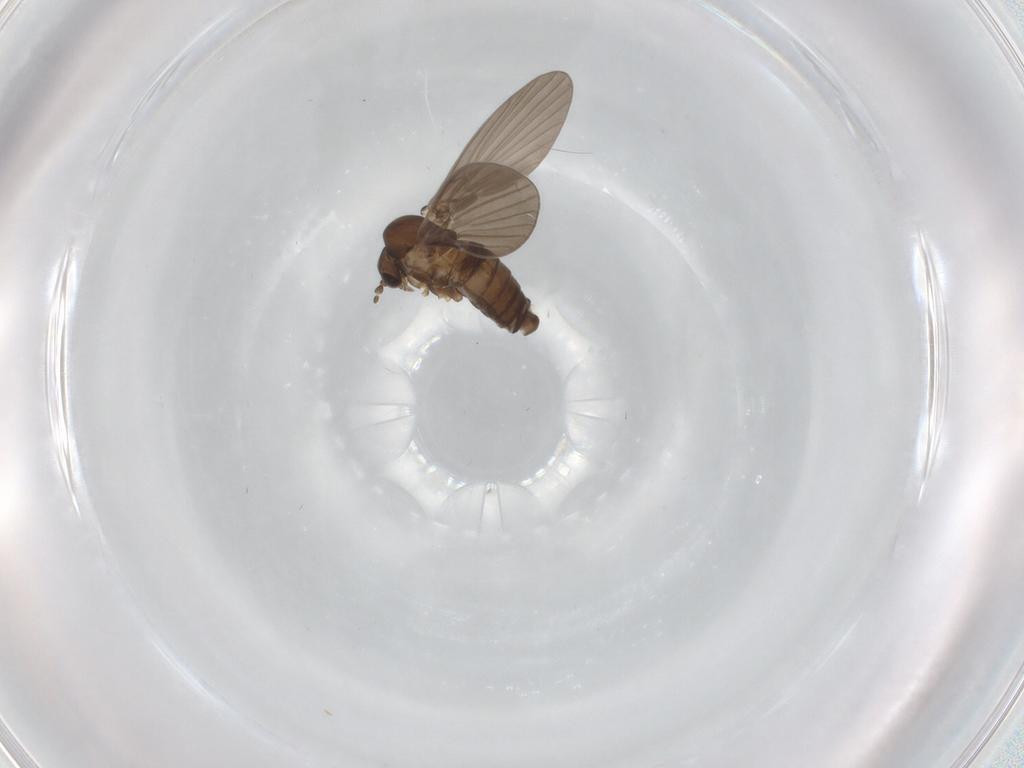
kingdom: Animalia
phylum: Arthropoda
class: Insecta
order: Diptera
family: Psychodidae
